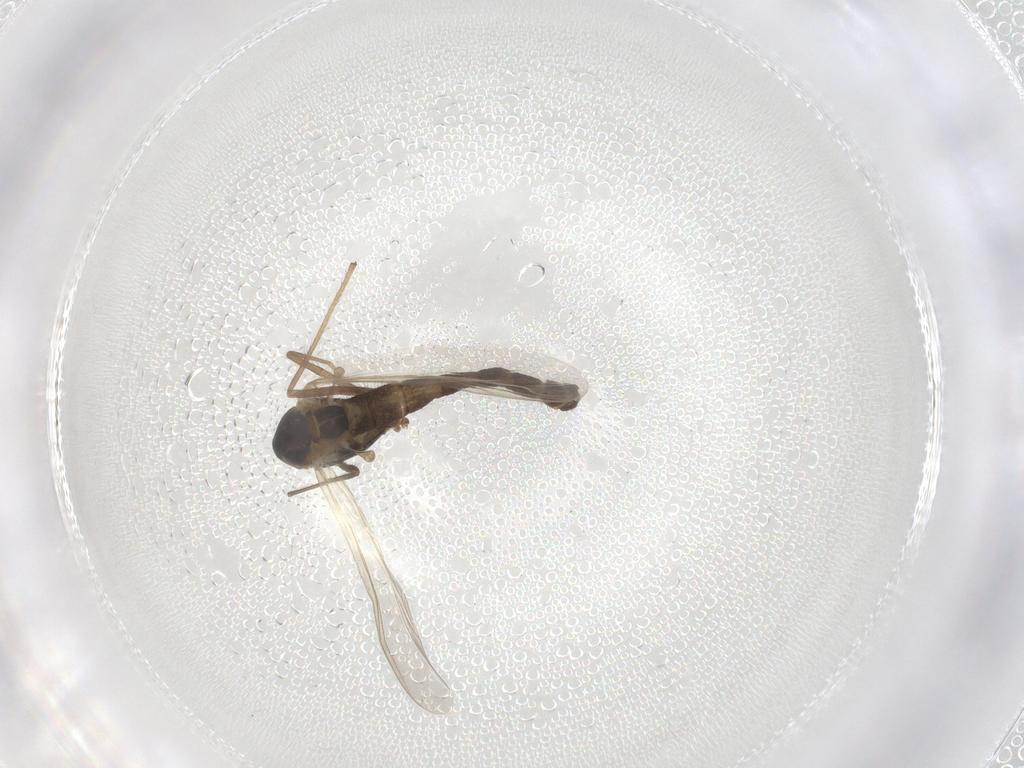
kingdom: Animalia
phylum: Arthropoda
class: Insecta
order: Diptera
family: Chironomidae
